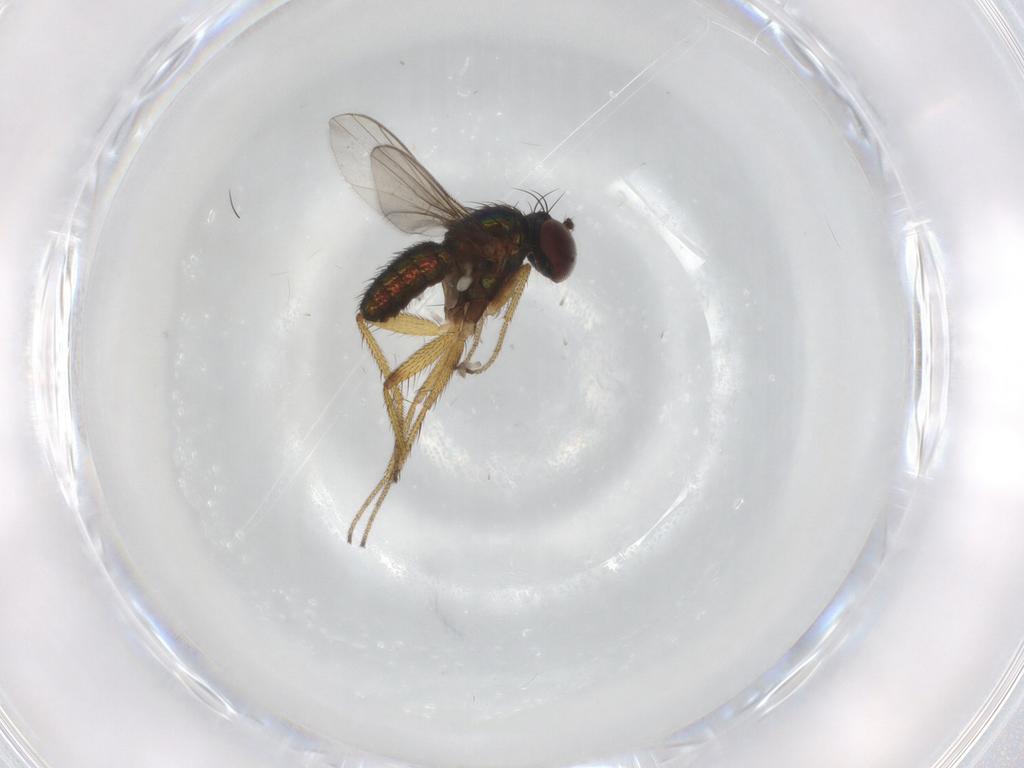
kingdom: Animalia
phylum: Arthropoda
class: Insecta
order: Diptera
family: Chironomidae
